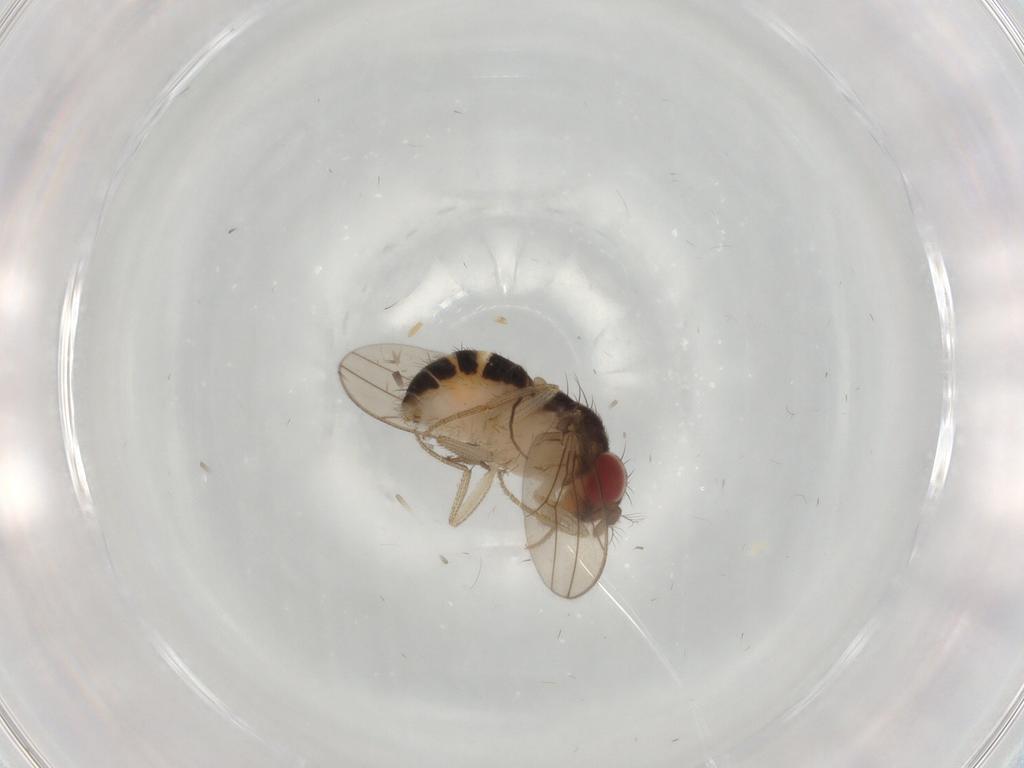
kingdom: Animalia
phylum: Arthropoda
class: Insecta
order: Diptera
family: Drosophilidae
